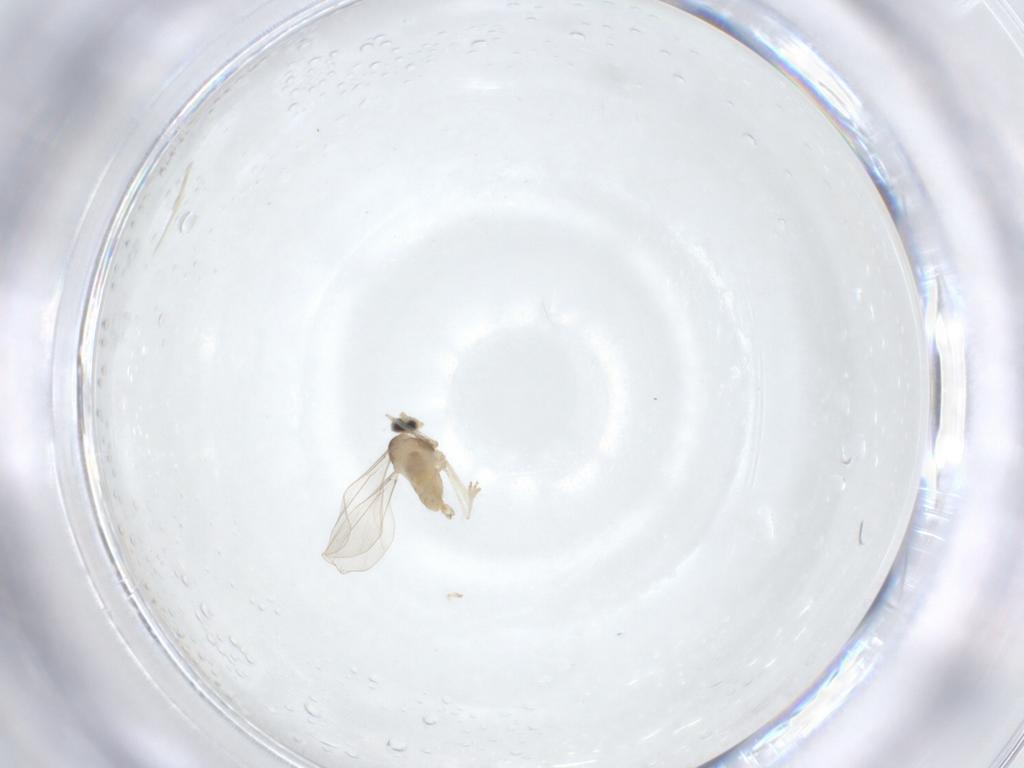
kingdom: Animalia
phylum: Arthropoda
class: Insecta
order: Diptera
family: Cecidomyiidae
